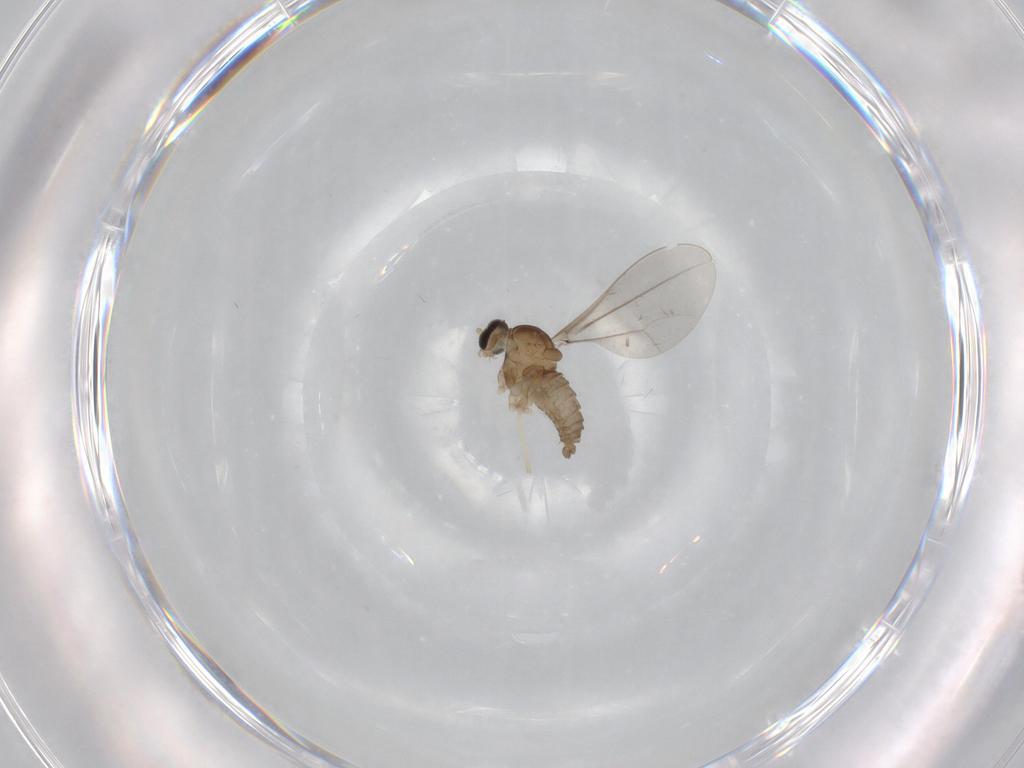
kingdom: Animalia
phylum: Arthropoda
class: Insecta
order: Diptera
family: Cecidomyiidae
